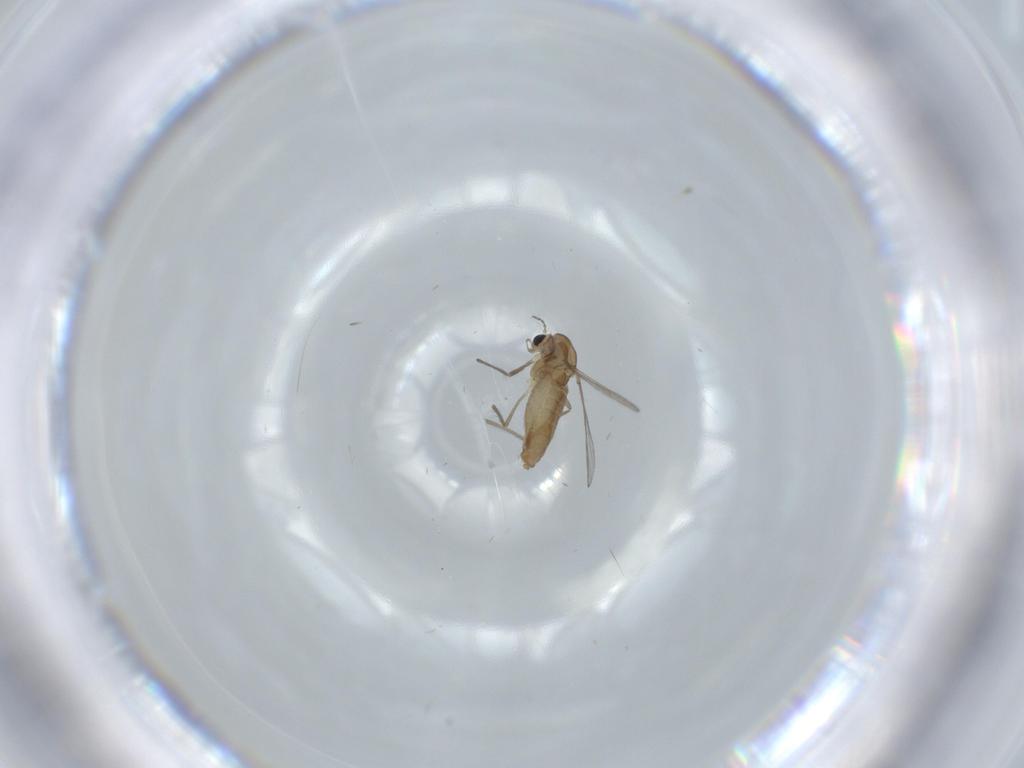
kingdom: Animalia
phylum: Arthropoda
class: Insecta
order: Diptera
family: Chironomidae
